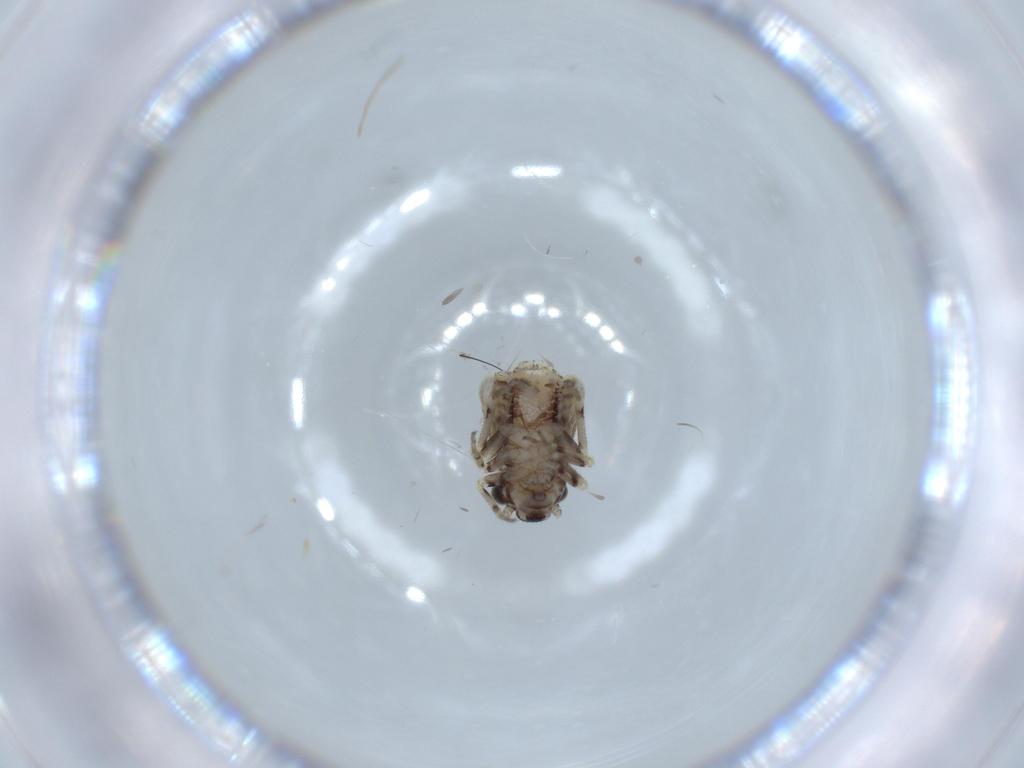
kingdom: Animalia
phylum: Arthropoda
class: Insecta
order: Psocodea
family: Psocidae
